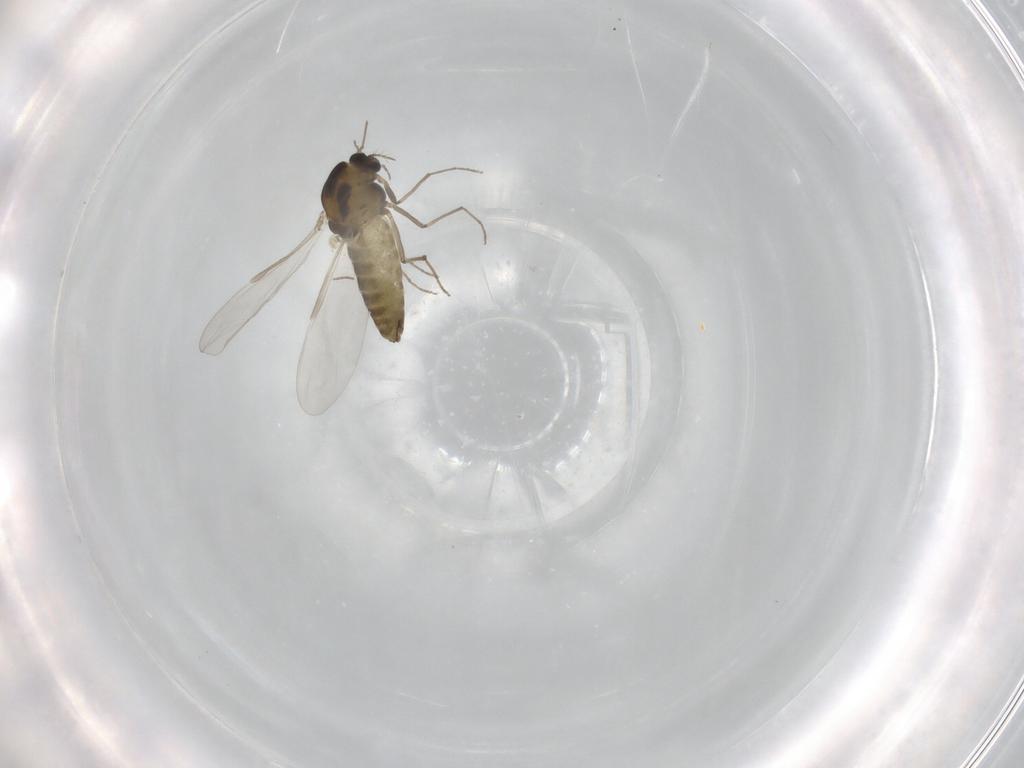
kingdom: Animalia
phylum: Arthropoda
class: Insecta
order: Diptera
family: Chironomidae
